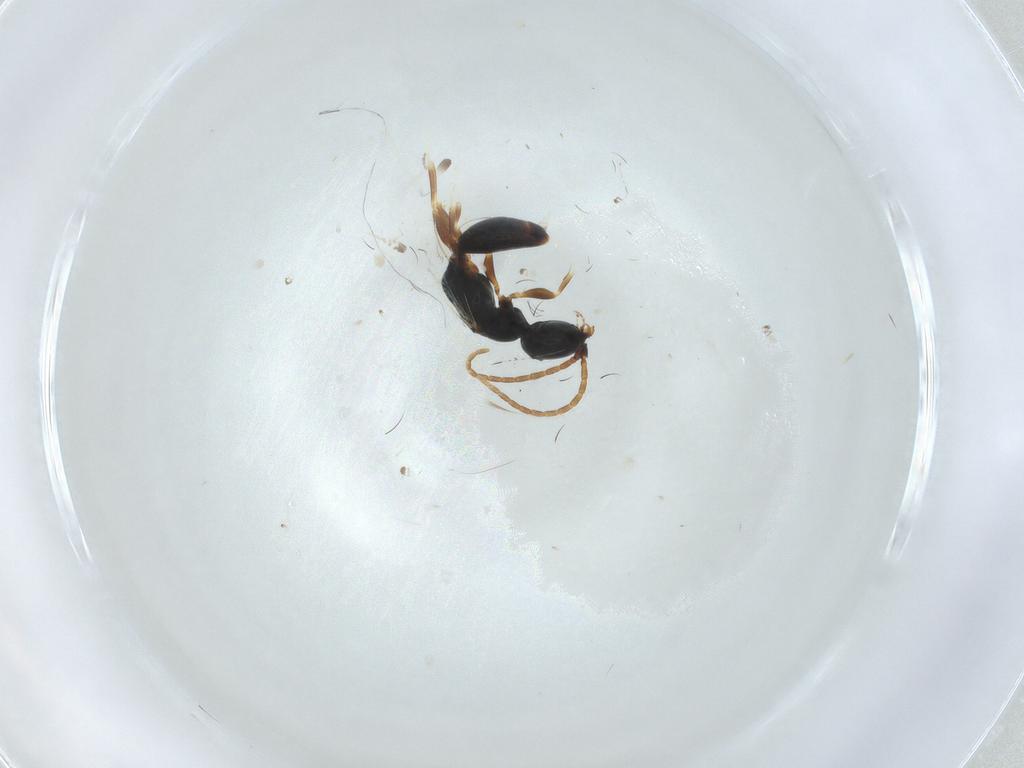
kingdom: Animalia
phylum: Arthropoda
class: Insecta
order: Hymenoptera
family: Bethylidae
